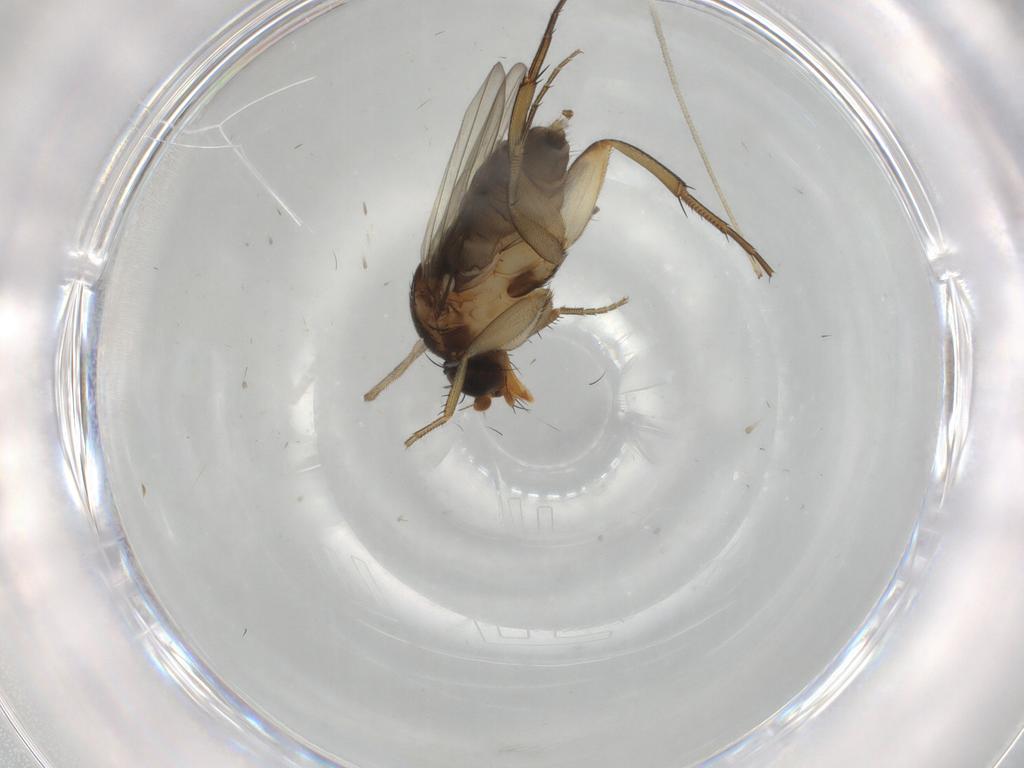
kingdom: Animalia
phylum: Arthropoda
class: Insecta
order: Diptera
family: Phoridae
